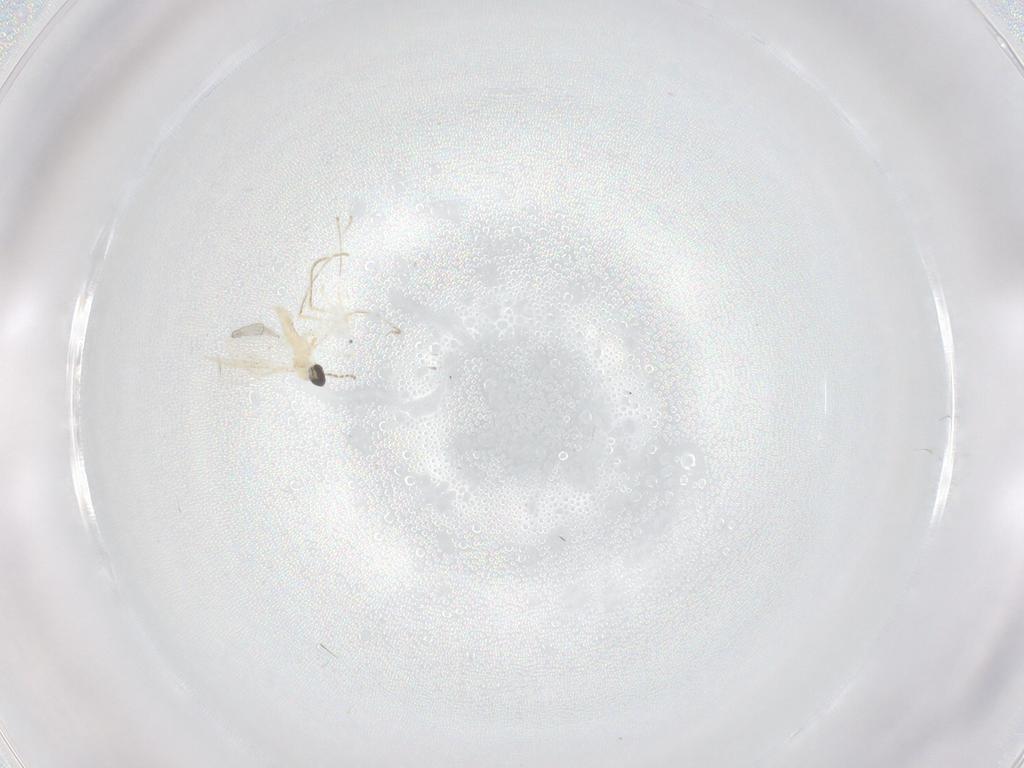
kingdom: Animalia
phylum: Arthropoda
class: Insecta
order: Diptera
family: Cecidomyiidae
